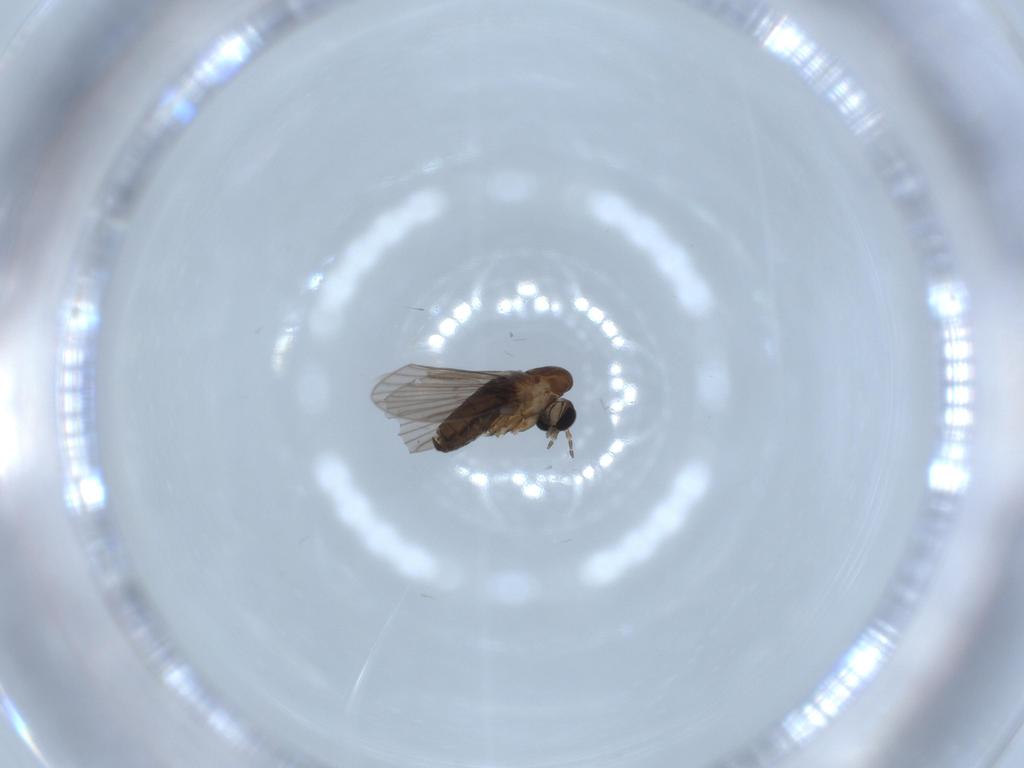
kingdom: Animalia
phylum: Arthropoda
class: Insecta
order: Diptera
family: Psychodidae
